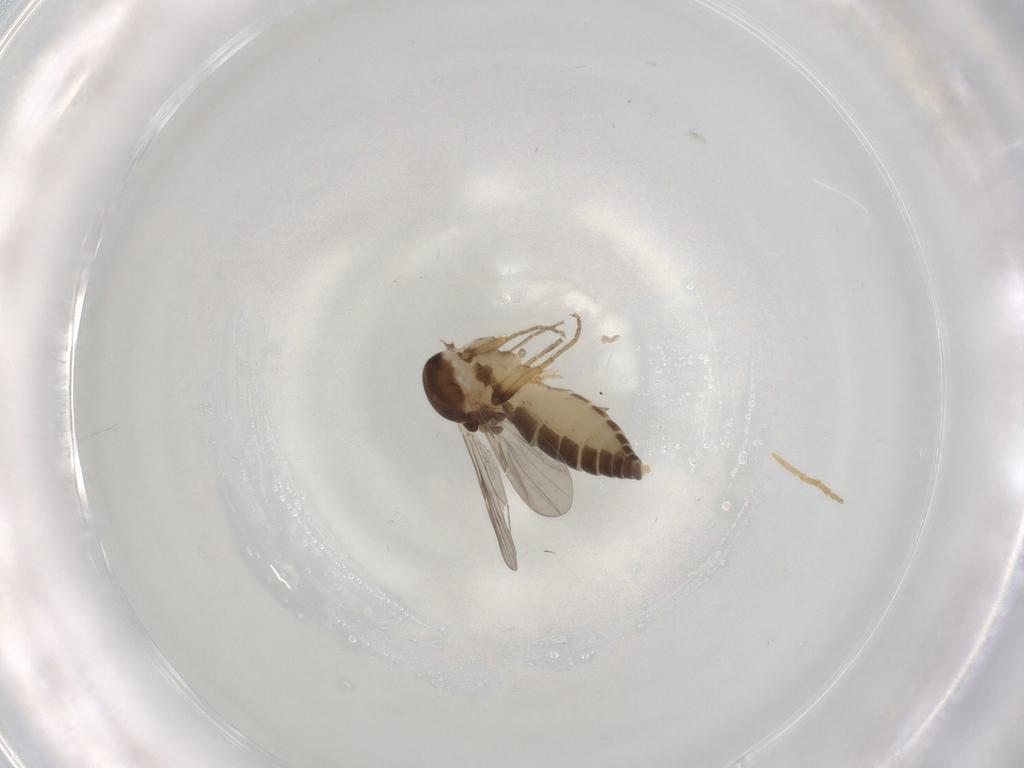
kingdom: Animalia
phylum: Arthropoda
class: Insecta
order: Diptera
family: Ceratopogonidae
